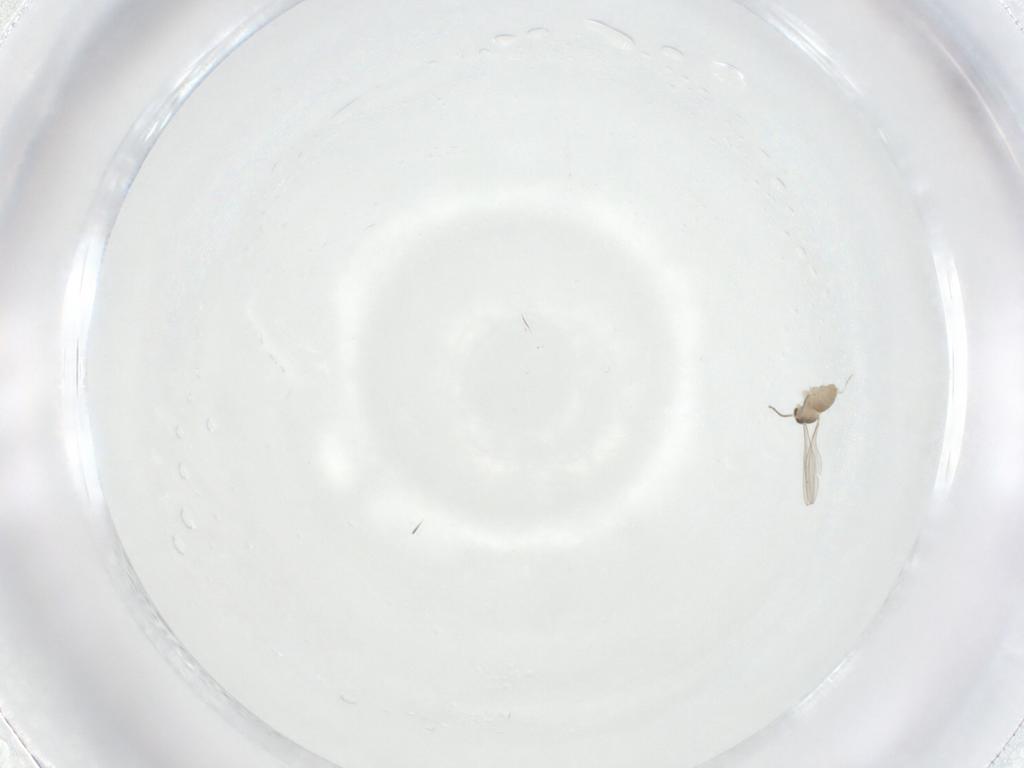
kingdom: Animalia
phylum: Arthropoda
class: Insecta
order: Diptera
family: Cecidomyiidae
